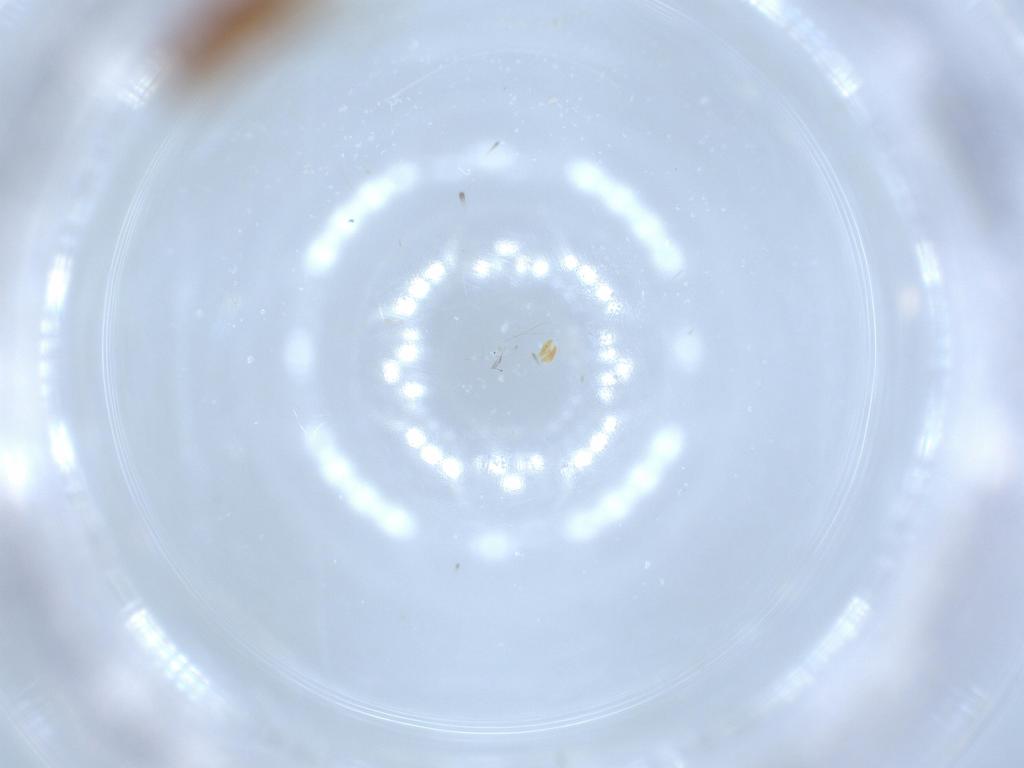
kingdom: Animalia
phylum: Arthropoda
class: Insecta
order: Coleoptera
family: Aderidae
